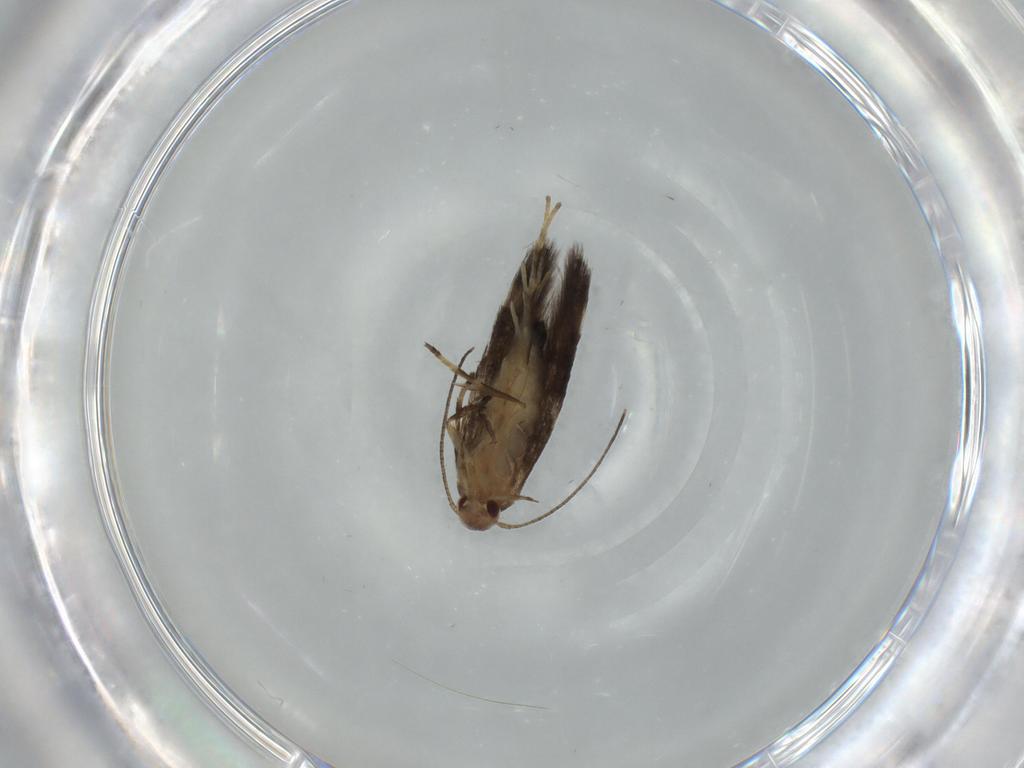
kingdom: Animalia
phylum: Arthropoda
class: Insecta
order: Lepidoptera
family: Cosmopterigidae
